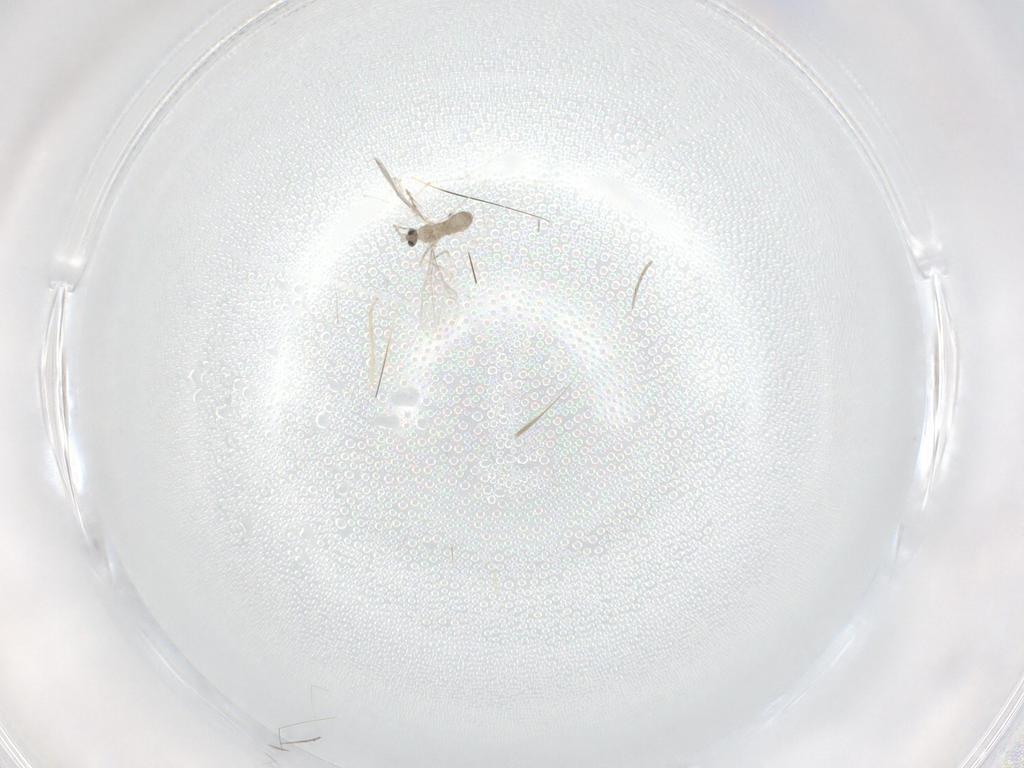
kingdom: Animalia
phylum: Arthropoda
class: Insecta
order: Diptera
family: Cecidomyiidae
